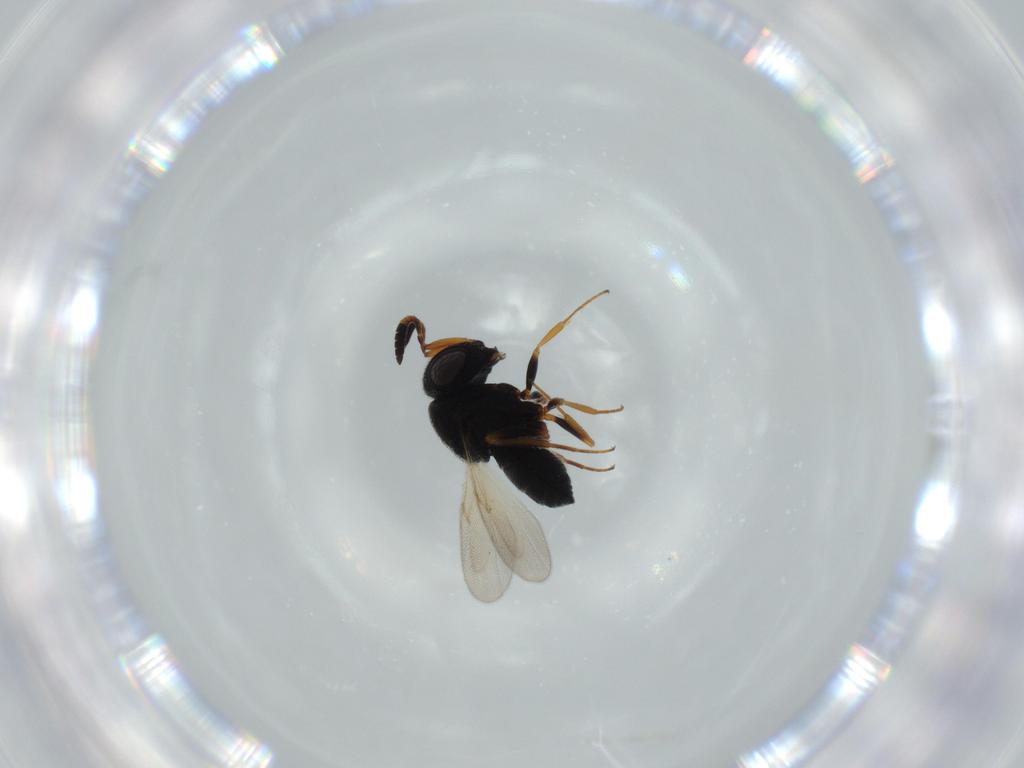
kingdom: Animalia
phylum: Arthropoda
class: Insecta
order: Hymenoptera
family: Scelionidae
